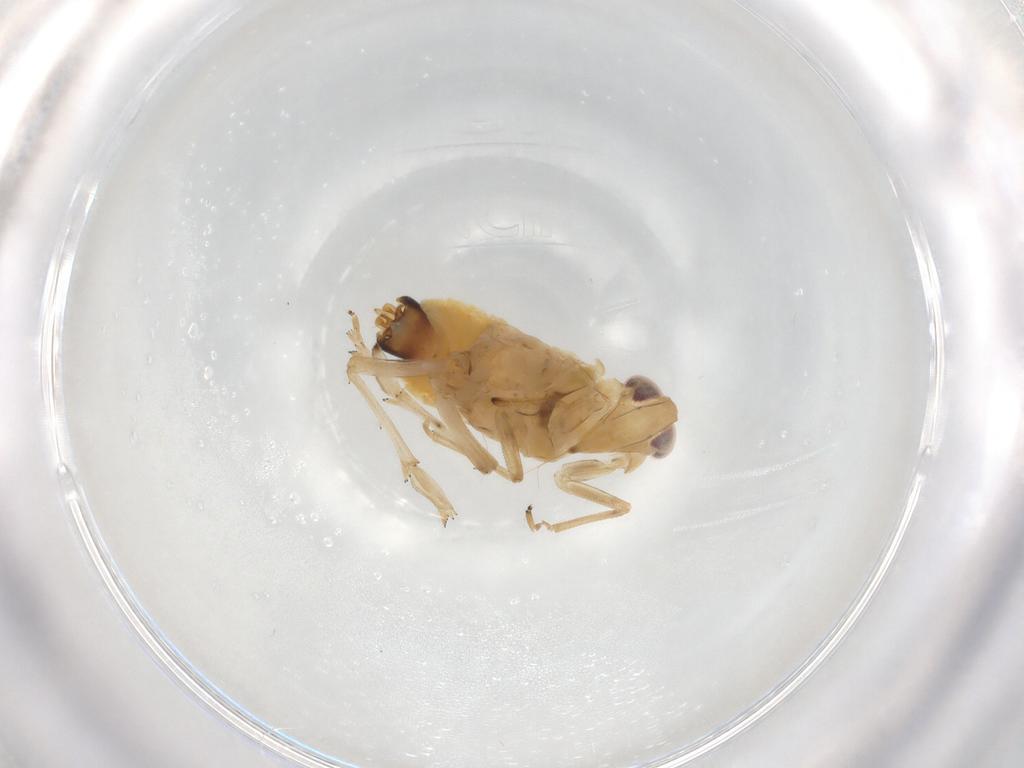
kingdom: Animalia
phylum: Arthropoda
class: Insecta
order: Hemiptera
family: Delphacidae
